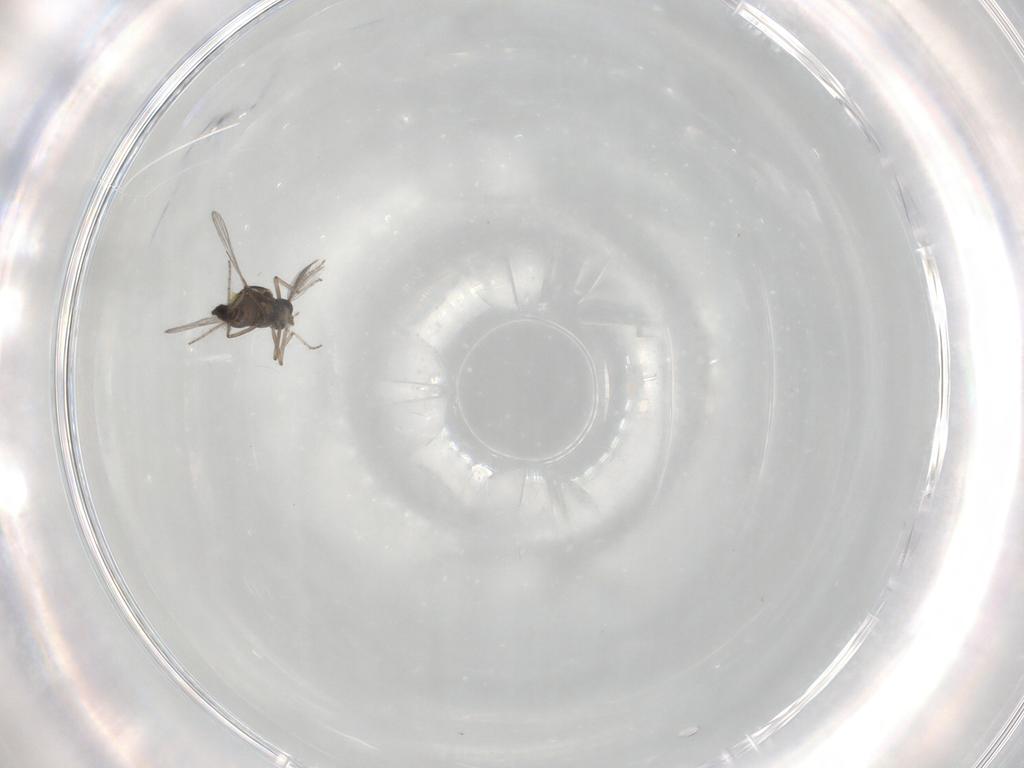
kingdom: Animalia
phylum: Arthropoda
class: Insecta
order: Diptera
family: Ceratopogonidae
